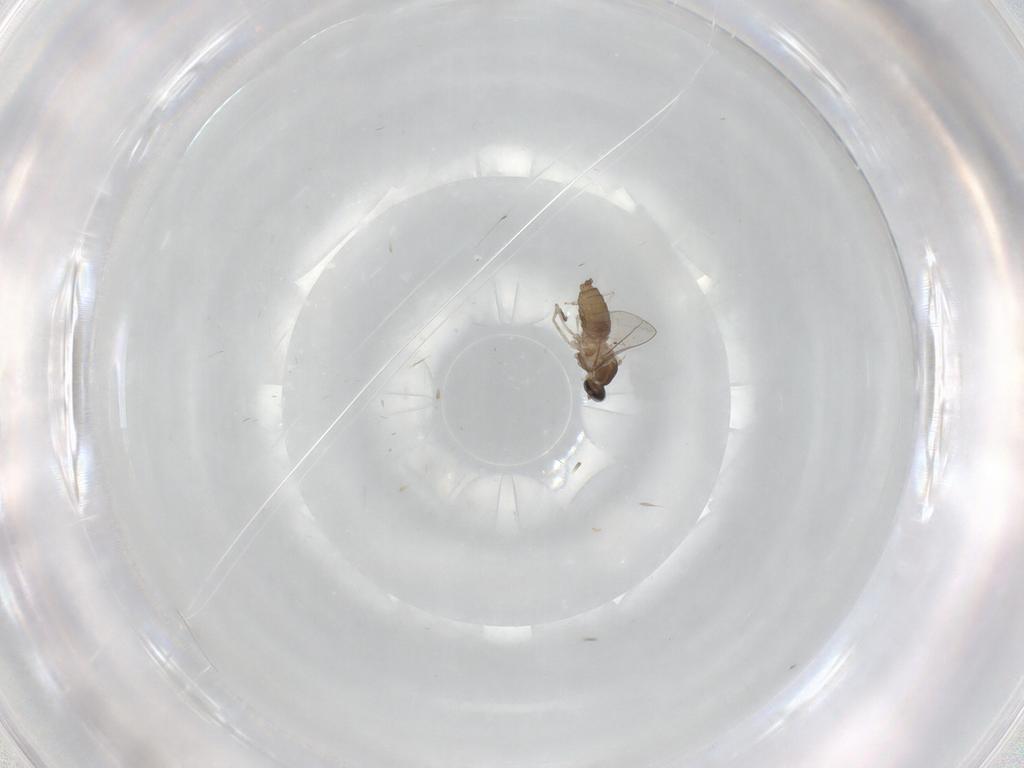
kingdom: Animalia
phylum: Arthropoda
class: Insecta
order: Diptera
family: Cecidomyiidae
